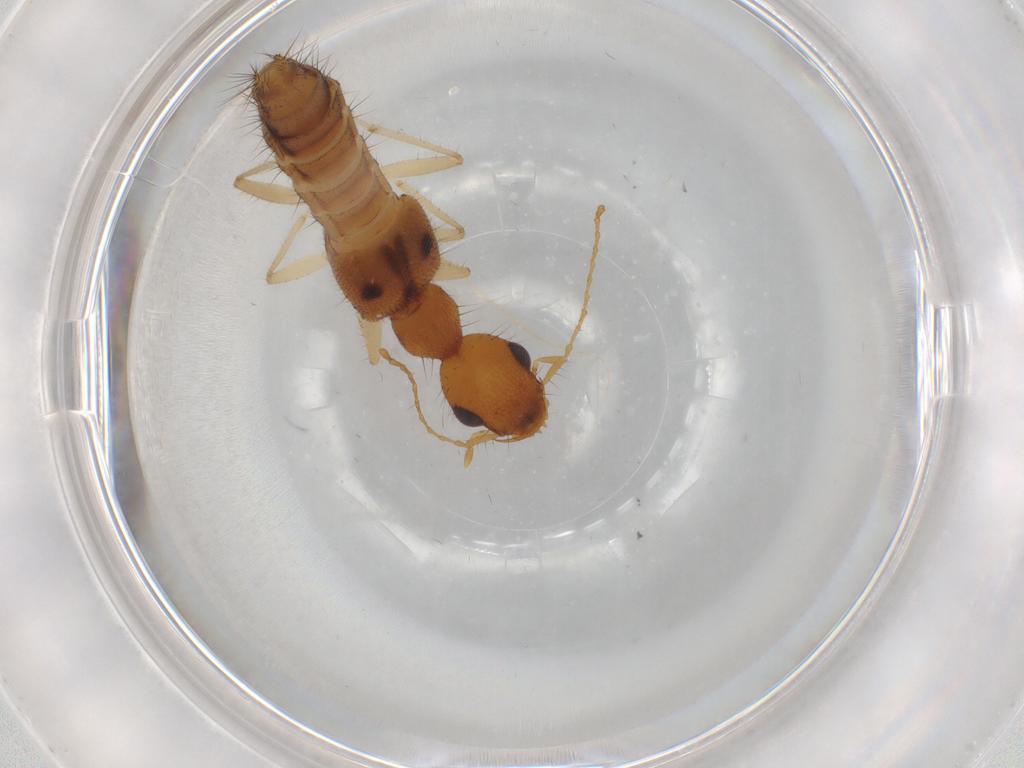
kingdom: Animalia
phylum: Arthropoda
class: Insecta
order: Coleoptera
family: Staphylinidae
